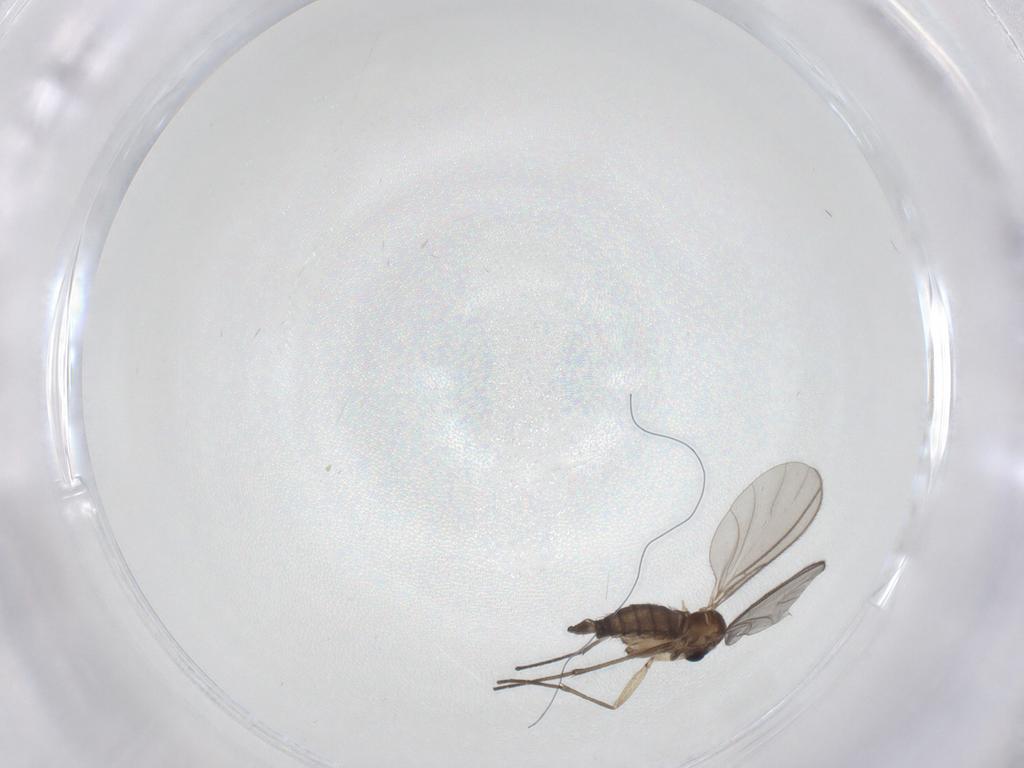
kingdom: Animalia
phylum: Arthropoda
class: Insecta
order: Diptera
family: Sciaridae
